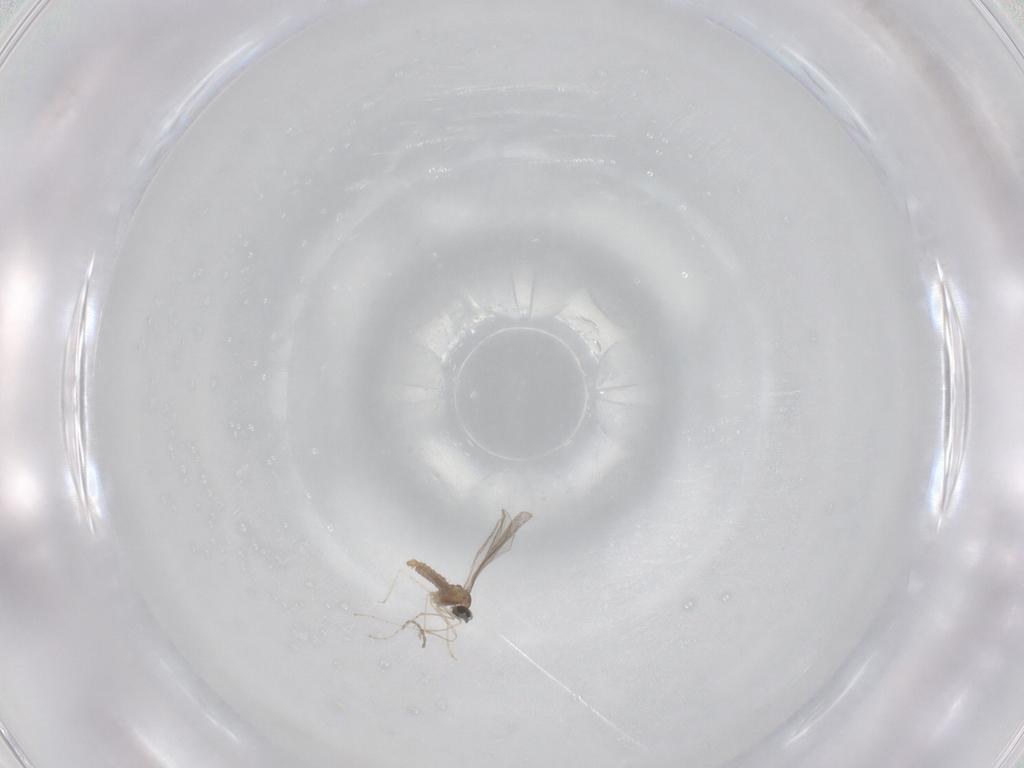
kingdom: Animalia
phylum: Arthropoda
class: Insecta
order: Diptera
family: Cecidomyiidae
